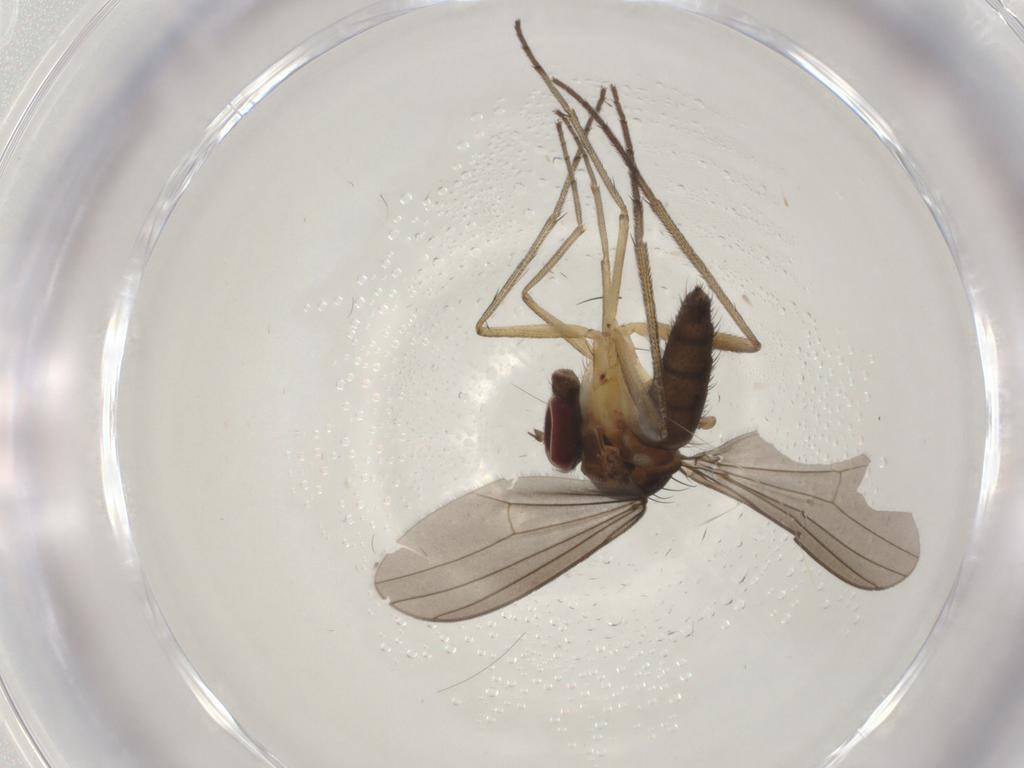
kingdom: Animalia
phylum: Arthropoda
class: Insecta
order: Diptera
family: Dolichopodidae
